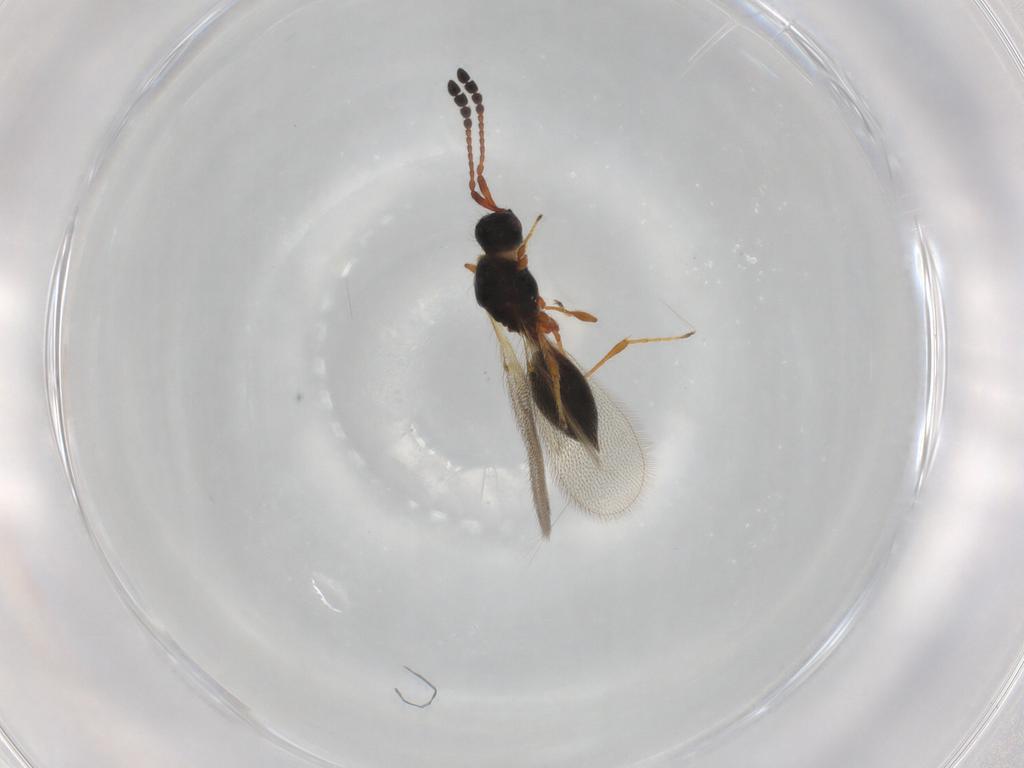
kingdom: Animalia
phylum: Arthropoda
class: Insecta
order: Hymenoptera
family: Diapriidae
